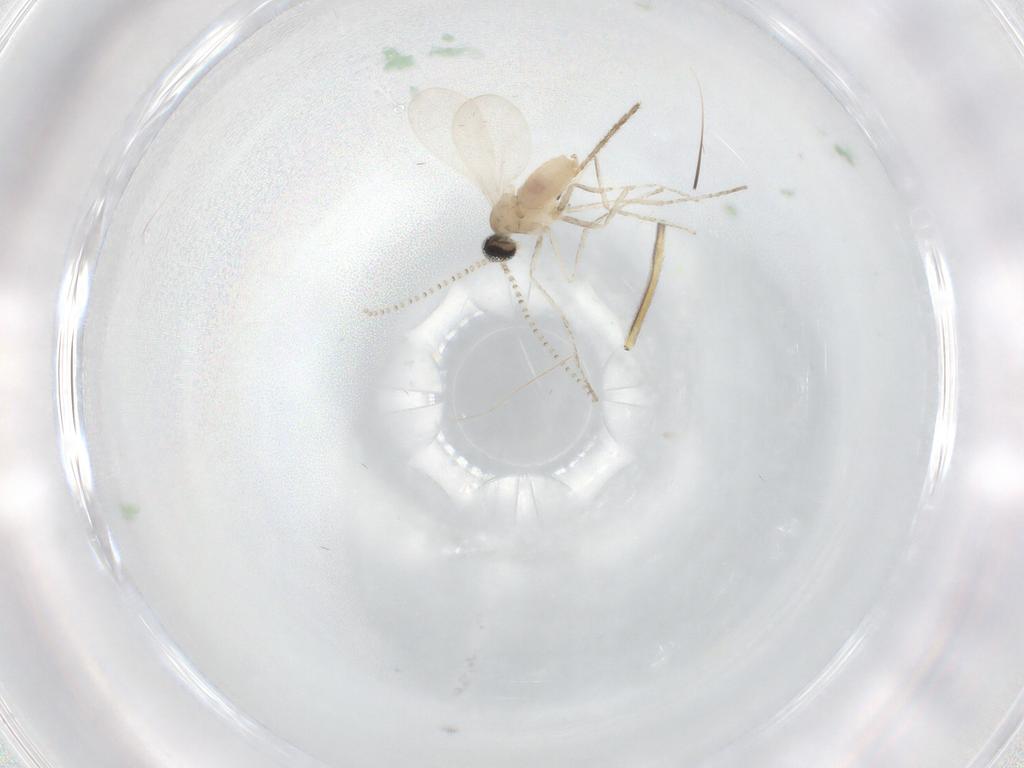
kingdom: Animalia
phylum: Arthropoda
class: Insecta
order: Diptera
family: Phoridae
